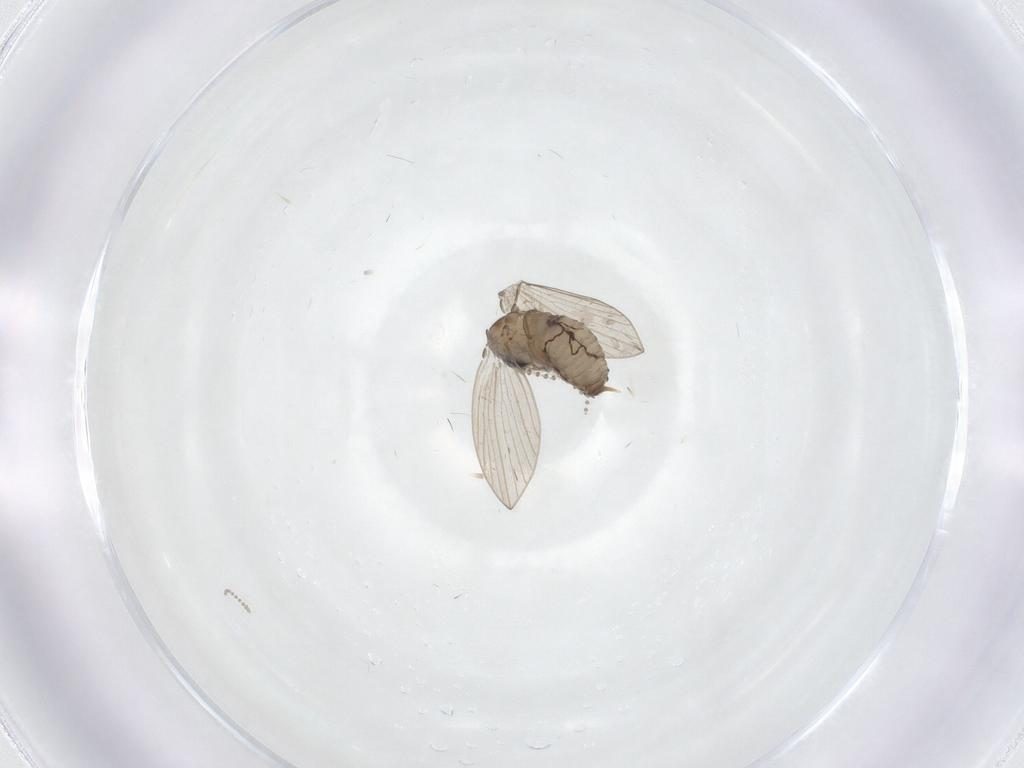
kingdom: Animalia
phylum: Arthropoda
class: Insecta
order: Diptera
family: Psychodidae
